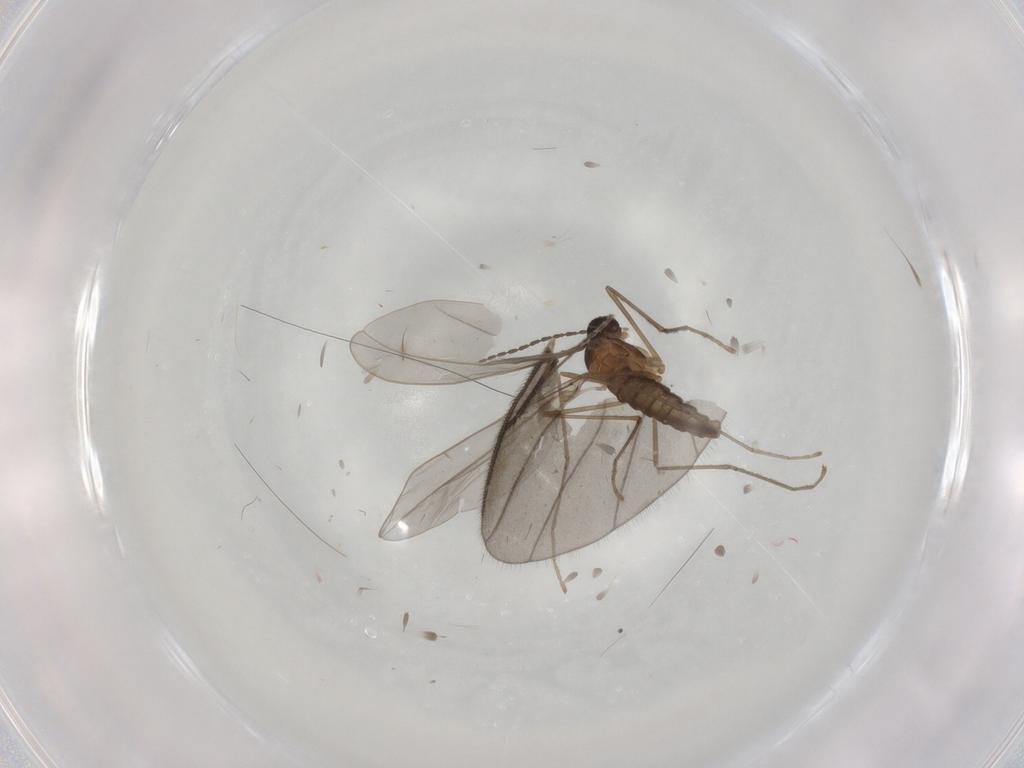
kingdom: Animalia
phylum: Arthropoda
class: Insecta
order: Diptera
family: Cecidomyiidae
